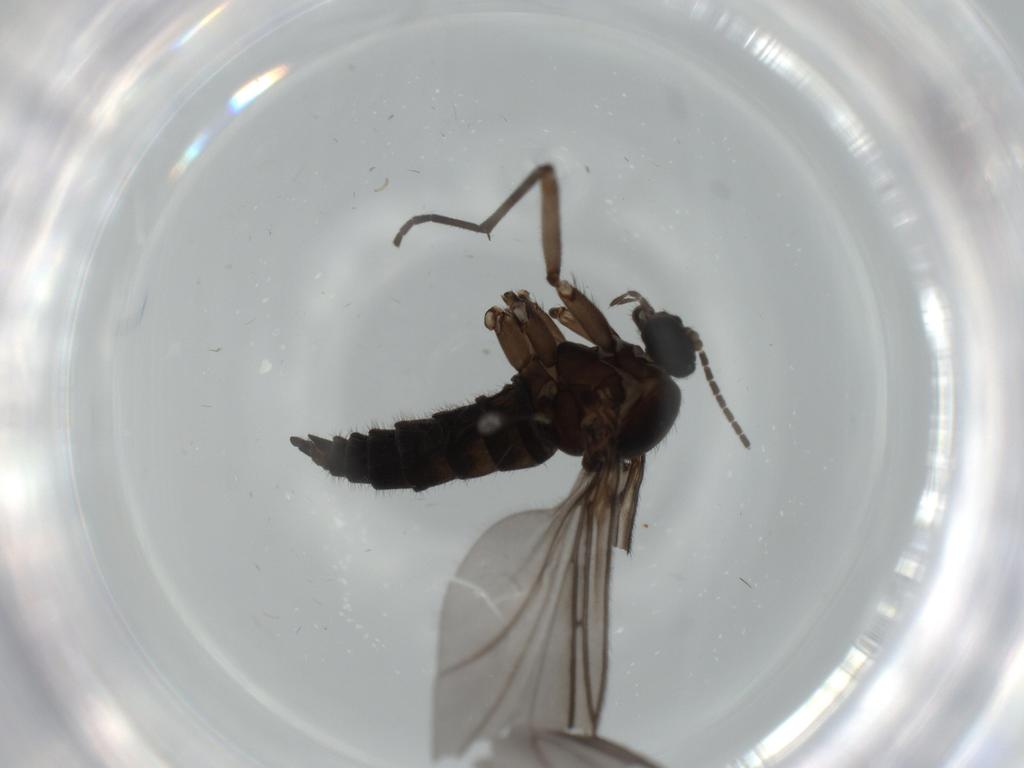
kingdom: Animalia
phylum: Arthropoda
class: Insecta
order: Diptera
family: Sciaridae
